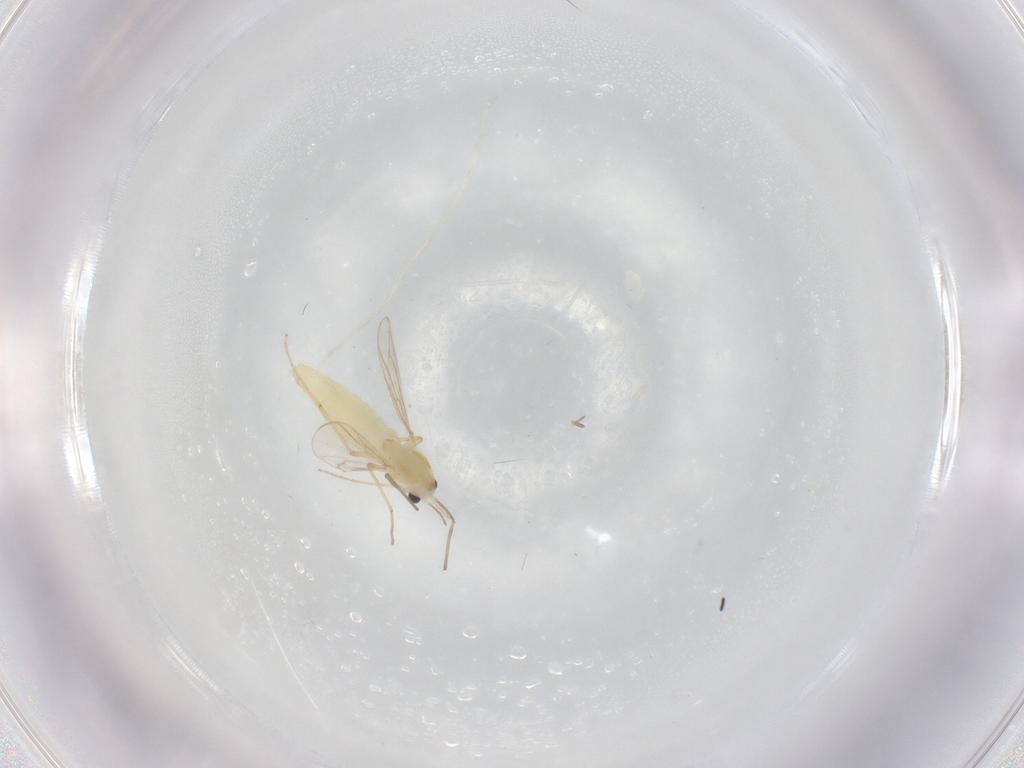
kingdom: Animalia
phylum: Arthropoda
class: Insecta
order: Diptera
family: Chironomidae
